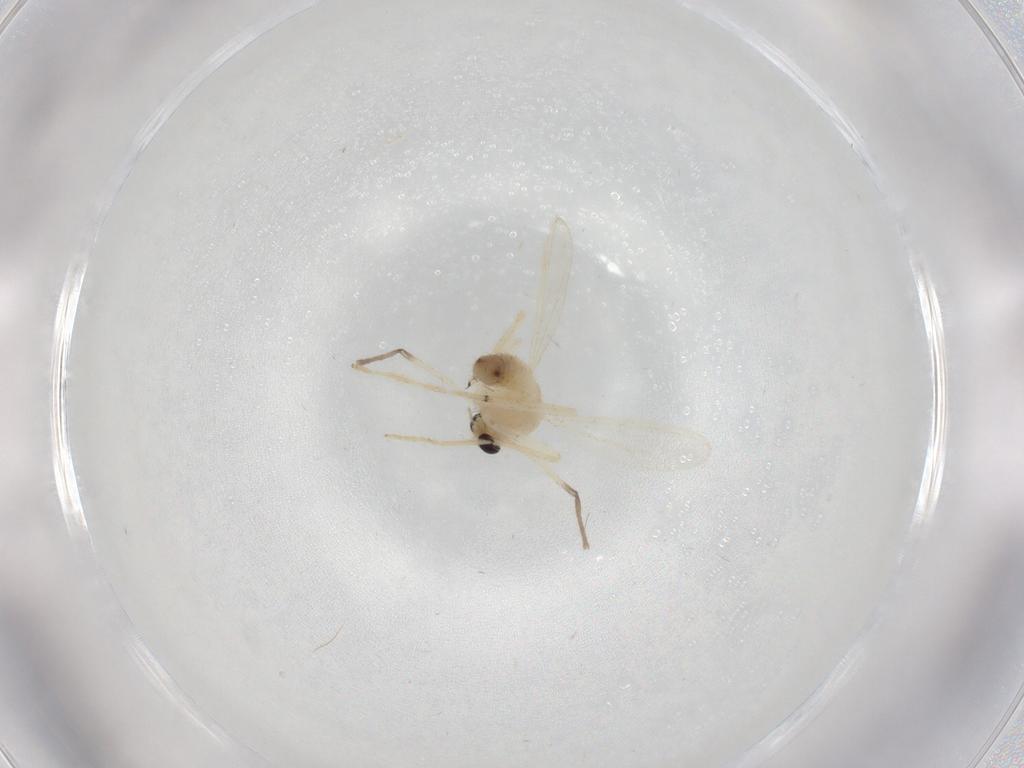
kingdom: Animalia
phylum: Arthropoda
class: Insecta
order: Diptera
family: Chironomidae
